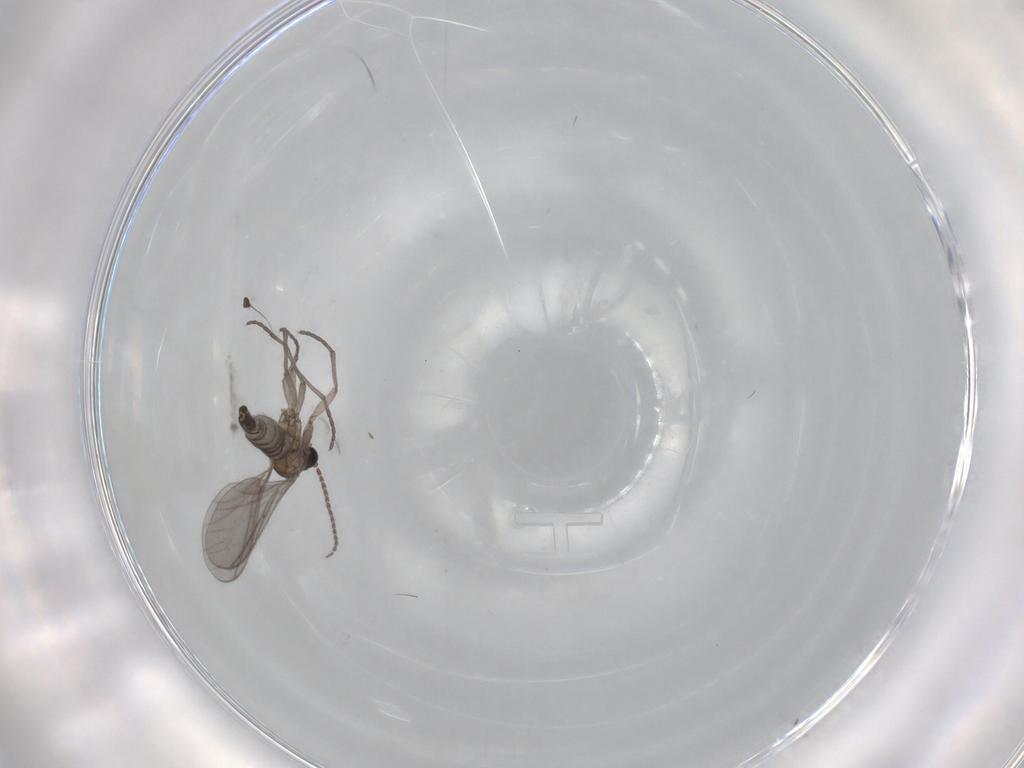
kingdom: Animalia
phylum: Arthropoda
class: Insecta
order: Diptera
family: Sciaridae
